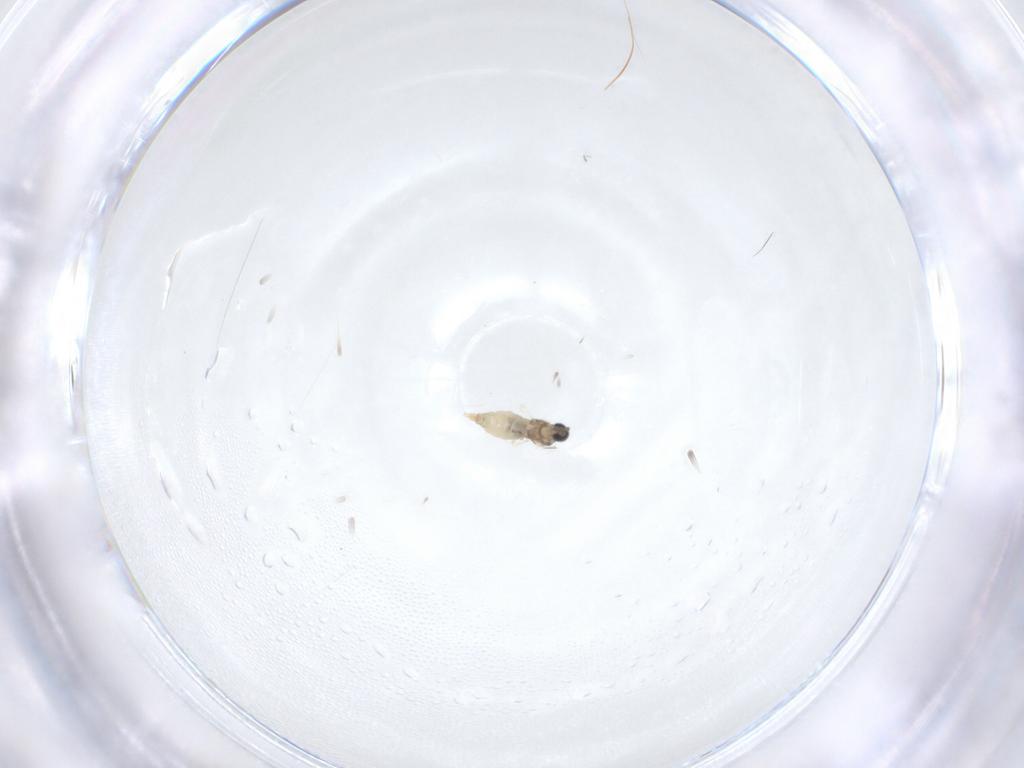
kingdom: Animalia
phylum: Arthropoda
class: Insecta
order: Diptera
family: Cecidomyiidae
